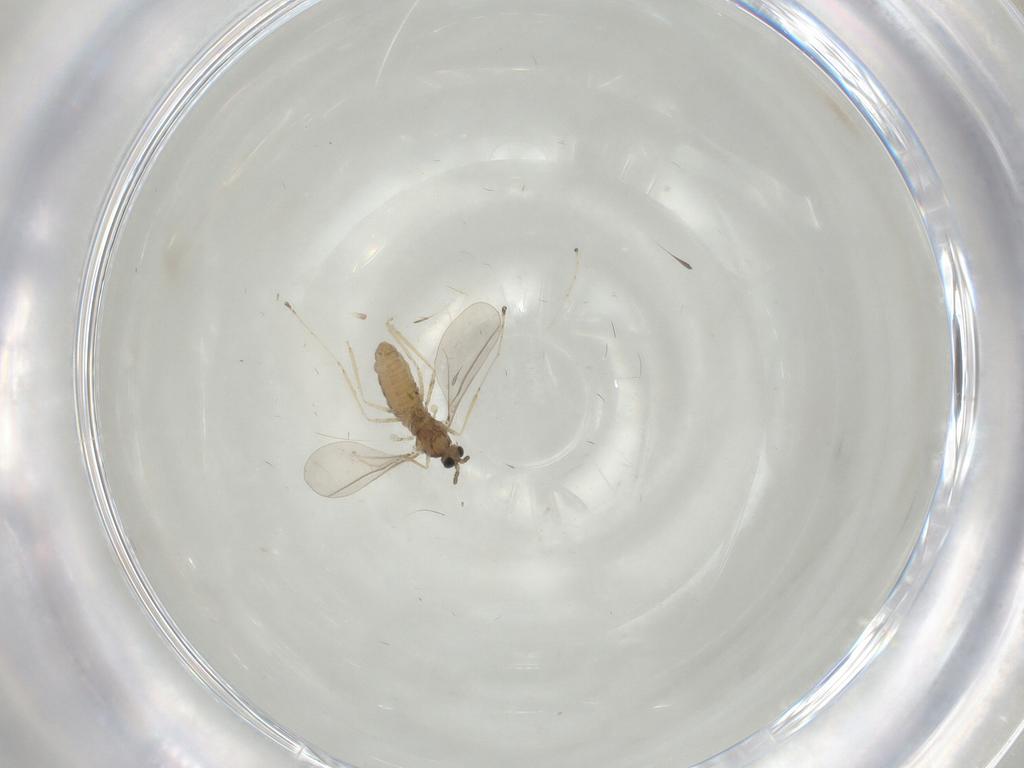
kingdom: Animalia
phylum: Arthropoda
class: Insecta
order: Diptera
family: Cecidomyiidae
